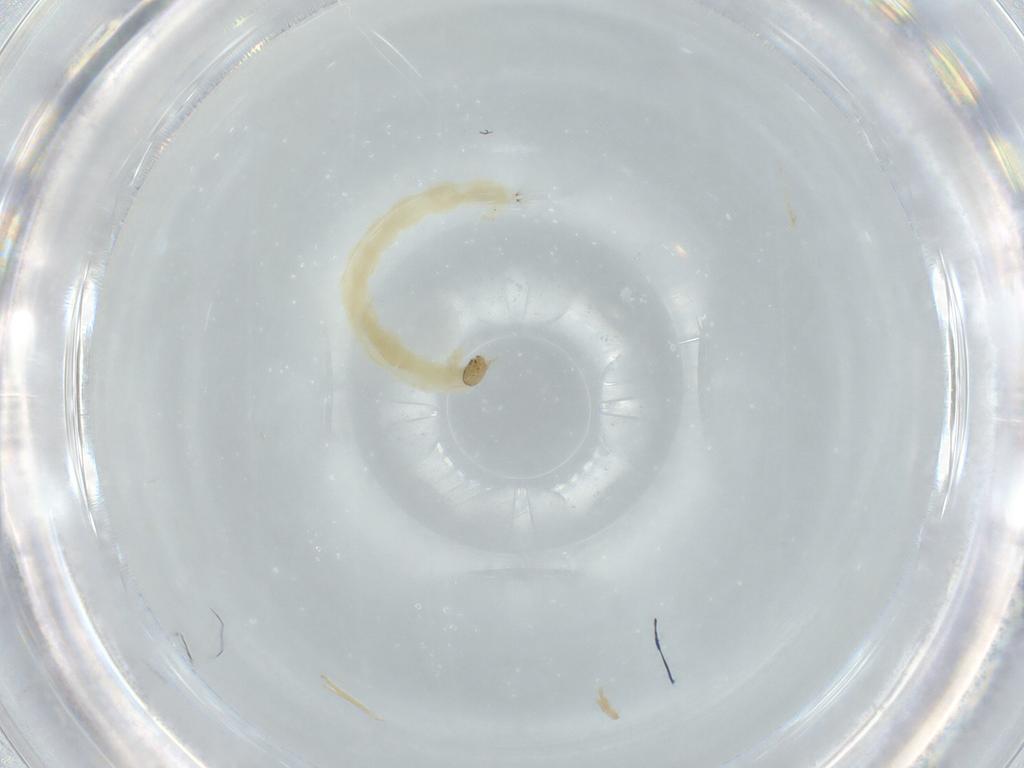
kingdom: Animalia
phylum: Arthropoda
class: Insecta
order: Diptera
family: Chironomidae
